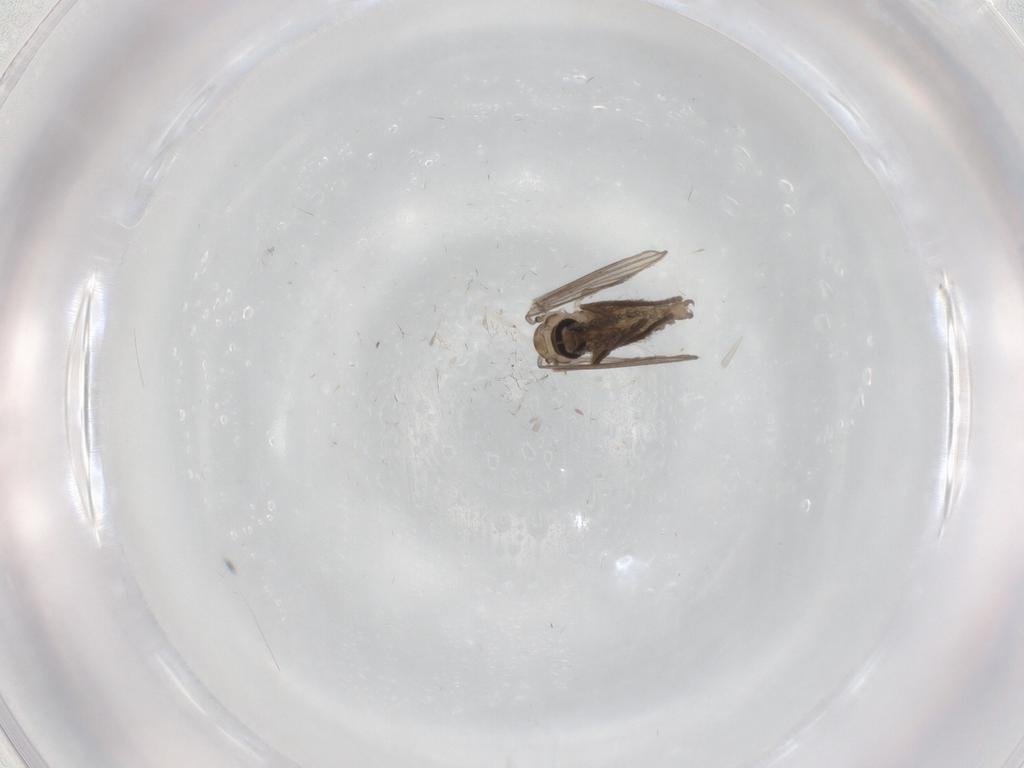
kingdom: Animalia
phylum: Arthropoda
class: Insecta
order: Diptera
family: Psychodidae
